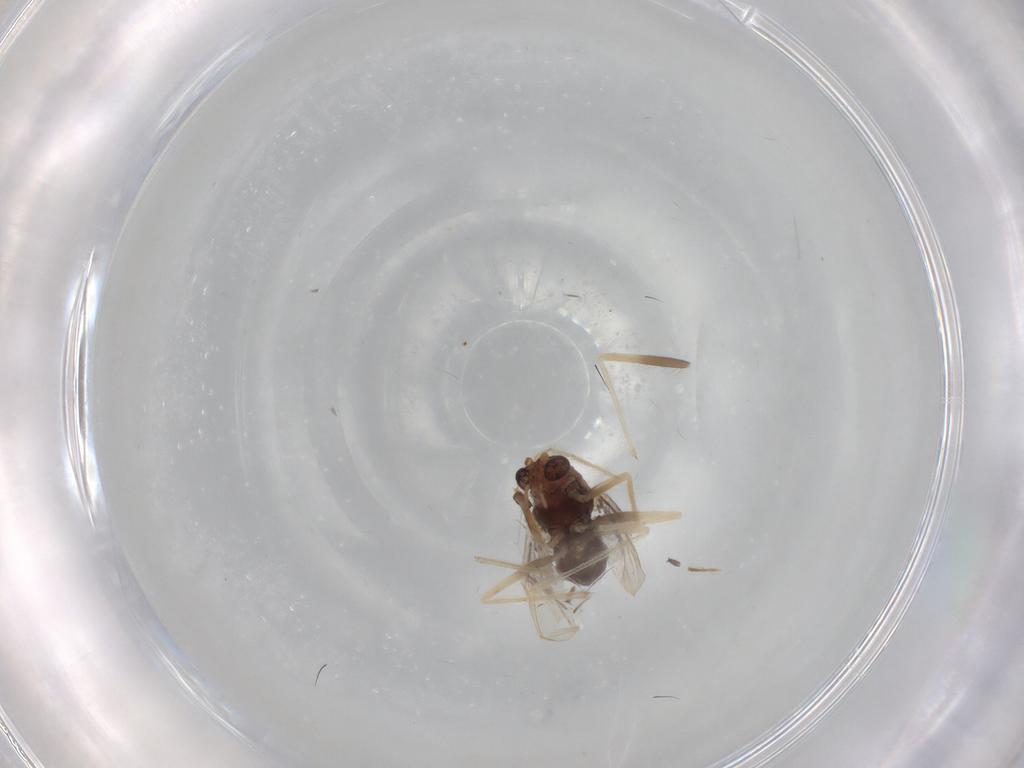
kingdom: Animalia
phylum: Arthropoda
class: Insecta
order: Diptera
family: Chironomidae
